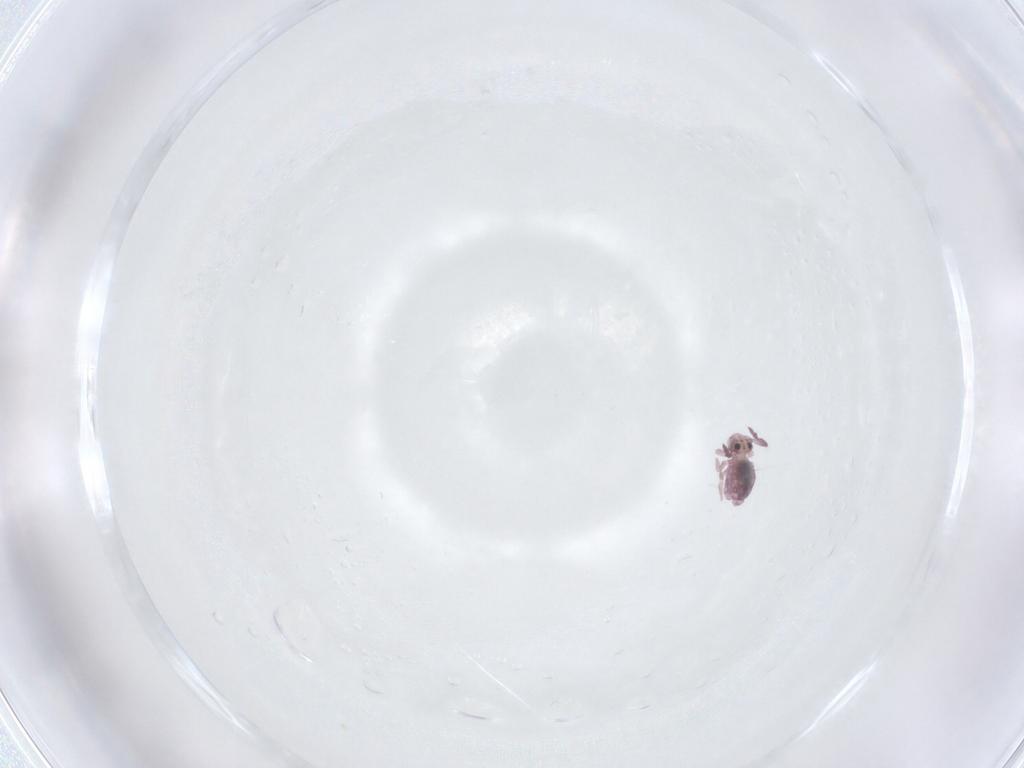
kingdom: Animalia
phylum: Arthropoda
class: Collembola
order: Symphypleona
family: Dicyrtomidae
